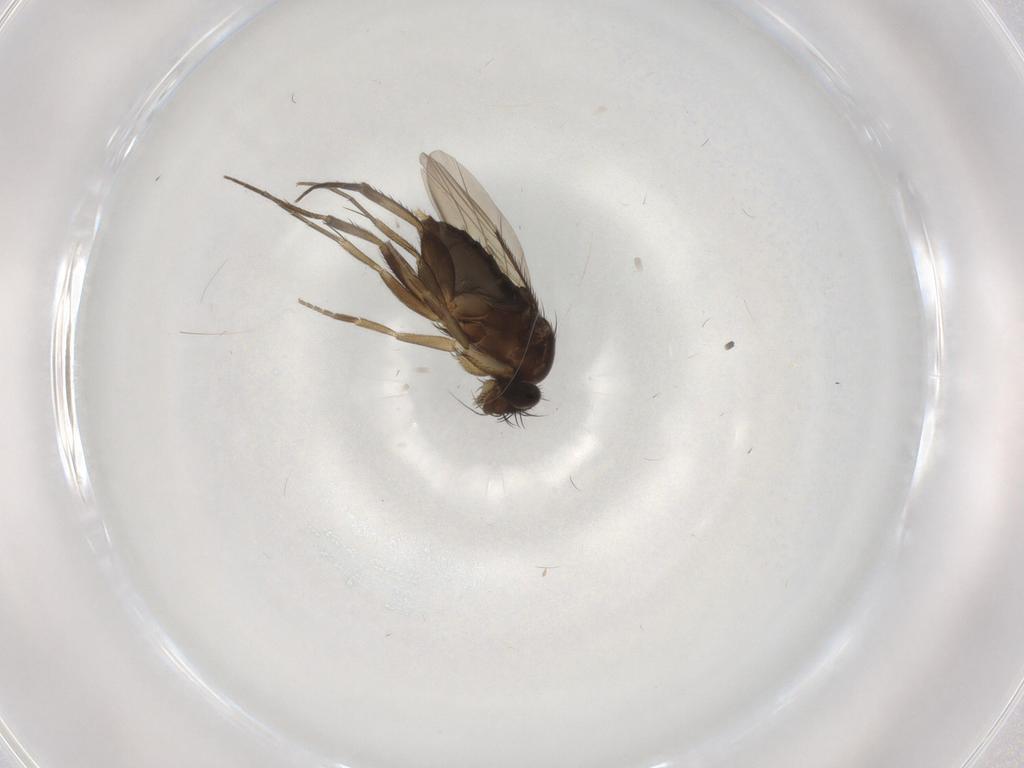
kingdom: Animalia
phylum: Arthropoda
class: Insecta
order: Diptera
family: Phoridae
